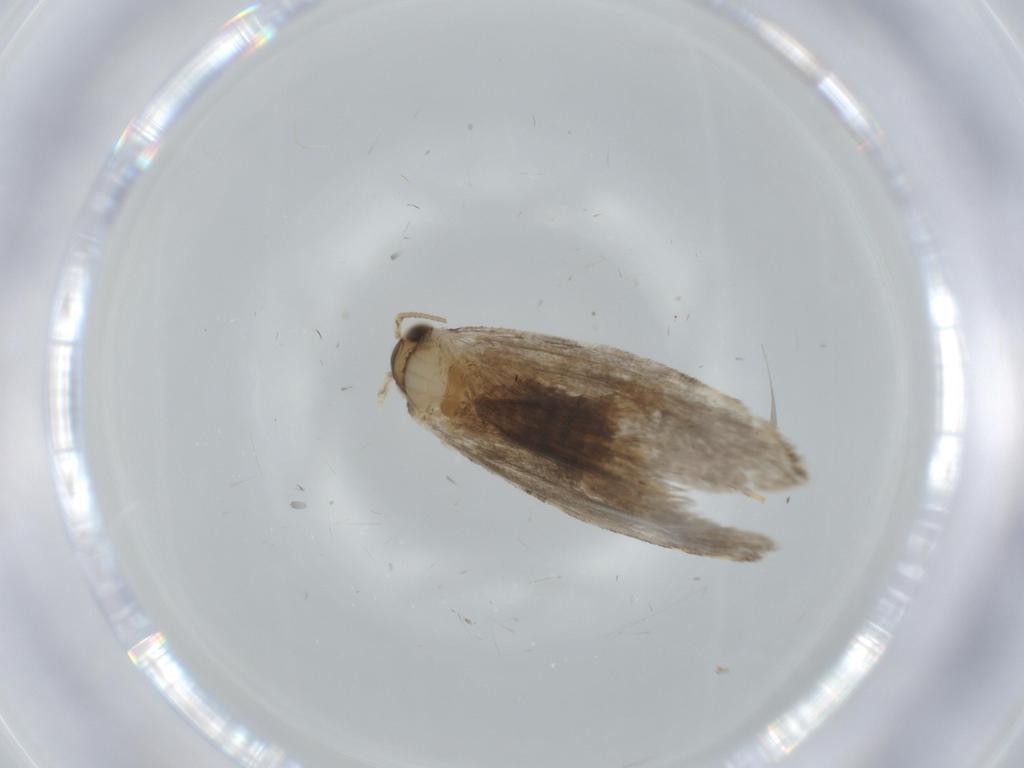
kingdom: Animalia
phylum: Arthropoda
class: Insecta
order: Lepidoptera
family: Tineidae
